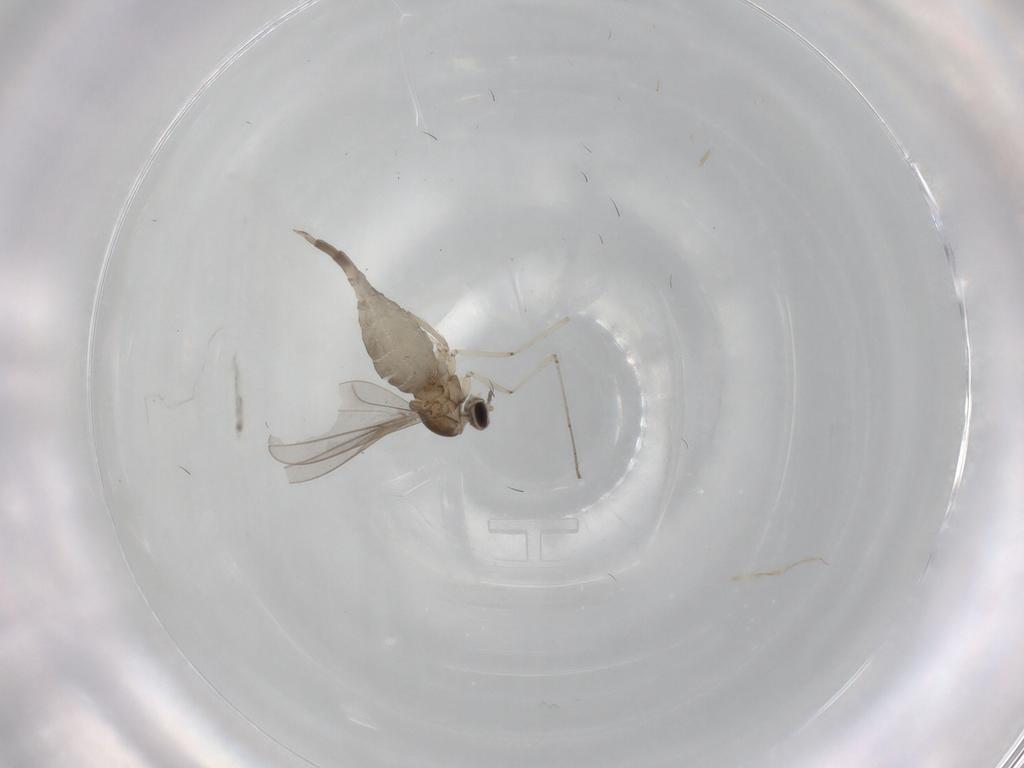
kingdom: Animalia
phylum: Arthropoda
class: Insecta
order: Diptera
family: Cecidomyiidae
